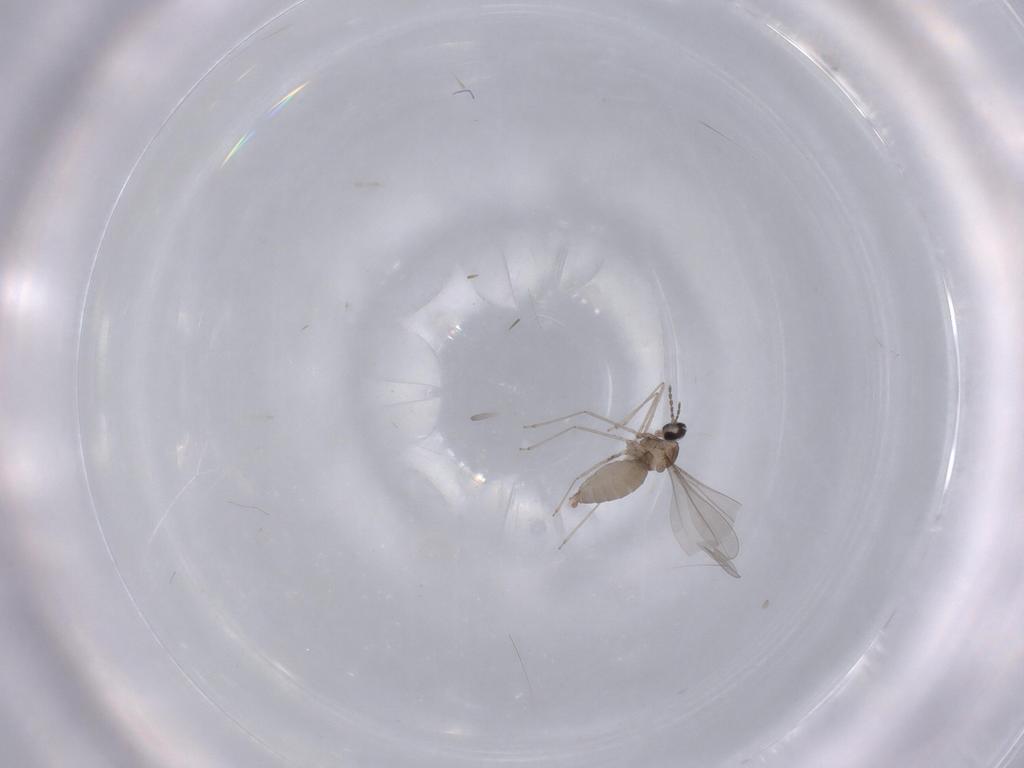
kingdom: Animalia
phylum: Arthropoda
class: Insecta
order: Diptera
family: Cecidomyiidae
